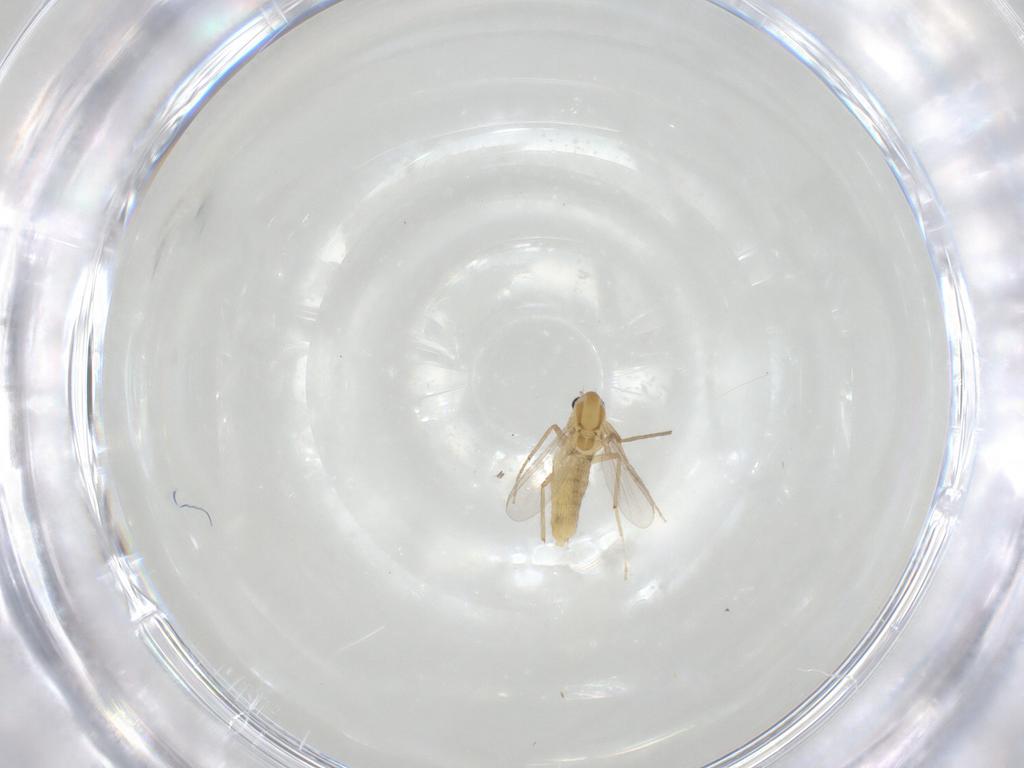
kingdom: Animalia
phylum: Arthropoda
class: Insecta
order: Diptera
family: Chironomidae
